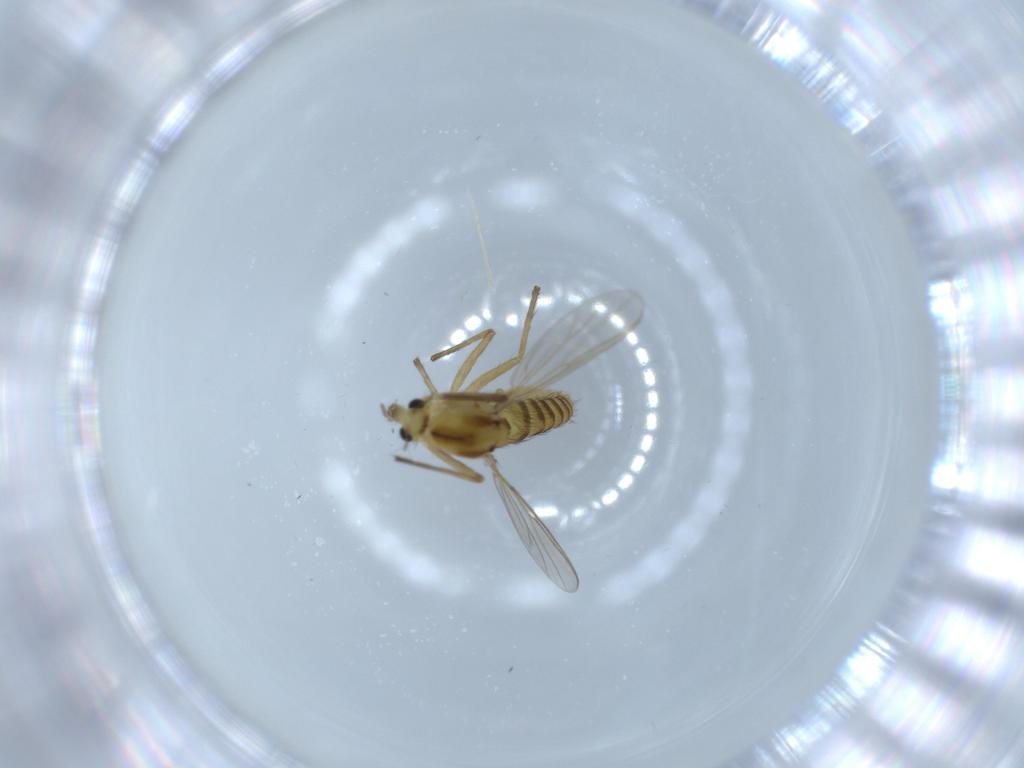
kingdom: Animalia
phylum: Arthropoda
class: Insecta
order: Diptera
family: Chironomidae
